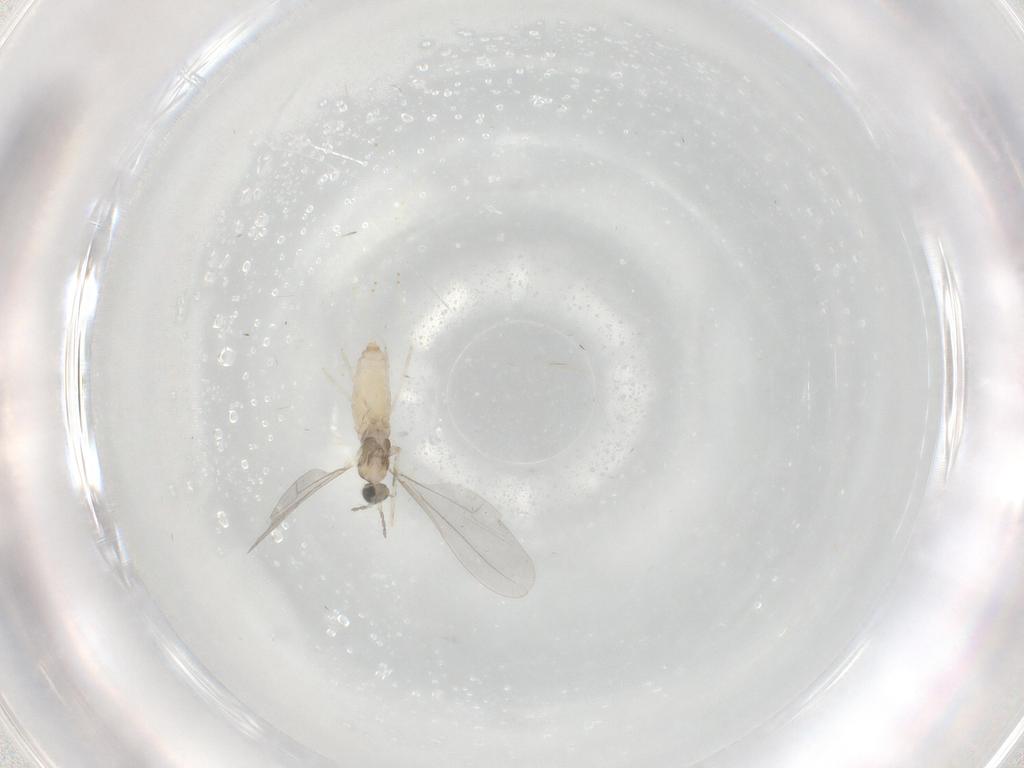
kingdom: Animalia
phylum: Arthropoda
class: Insecta
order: Diptera
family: Cecidomyiidae
